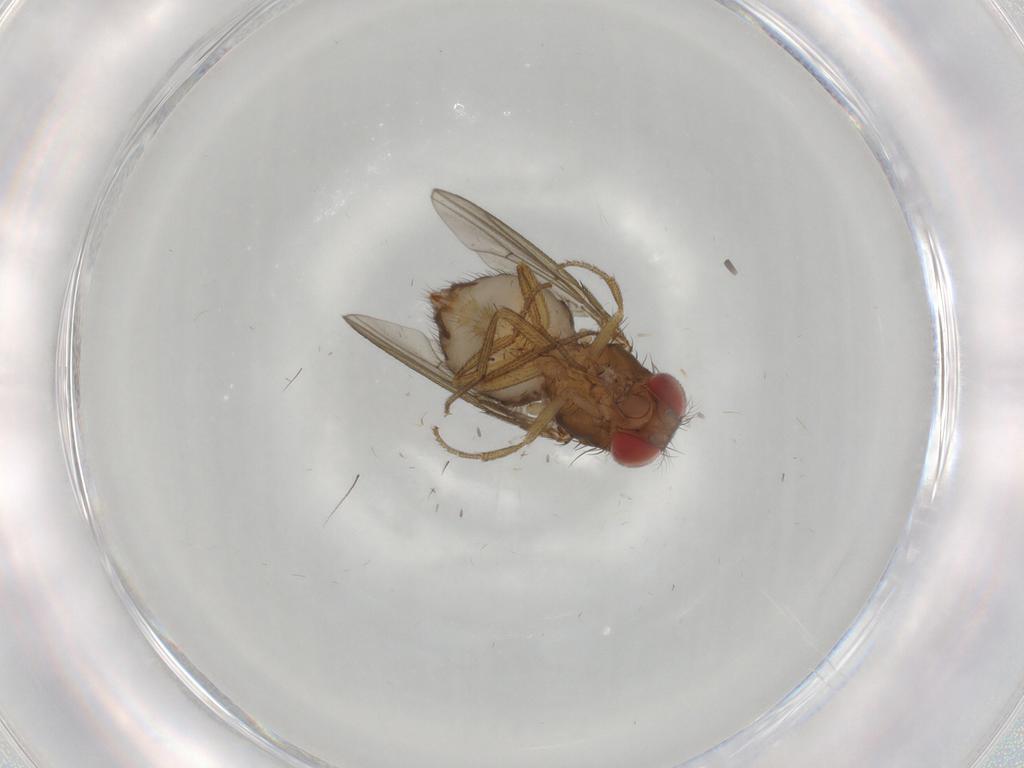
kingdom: Animalia
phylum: Arthropoda
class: Insecta
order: Diptera
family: Drosophilidae
